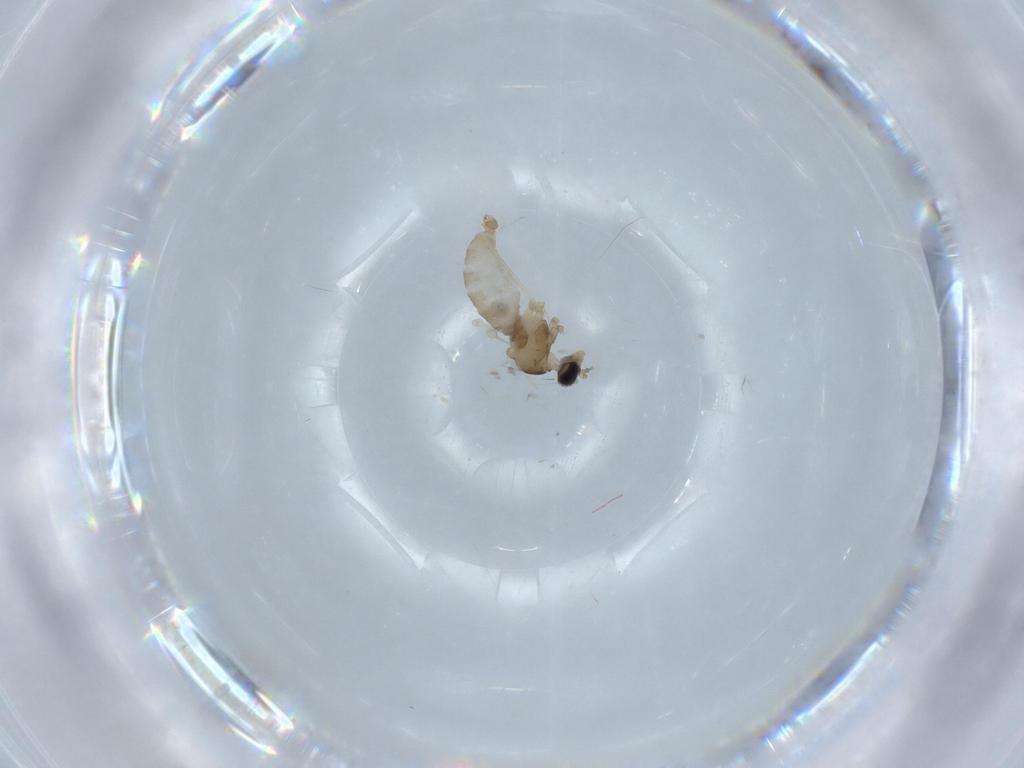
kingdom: Animalia
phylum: Arthropoda
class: Insecta
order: Diptera
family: Cecidomyiidae
